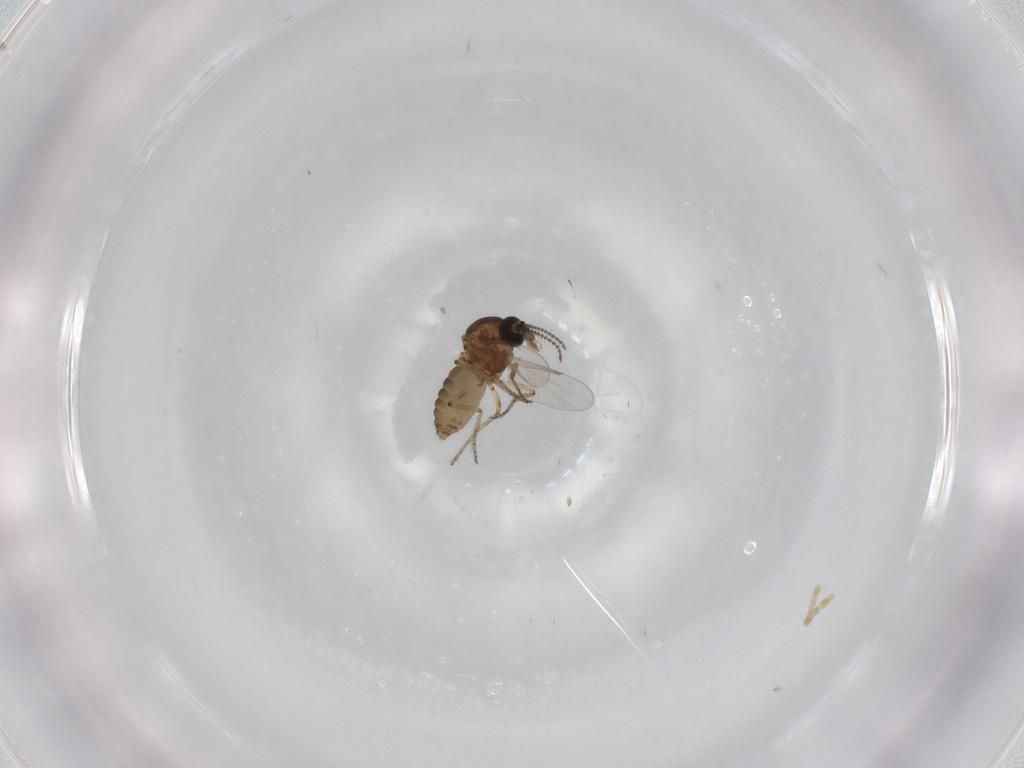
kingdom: Animalia
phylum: Arthropoda
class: Insecta
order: Diptera
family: Ceratopogonidae
